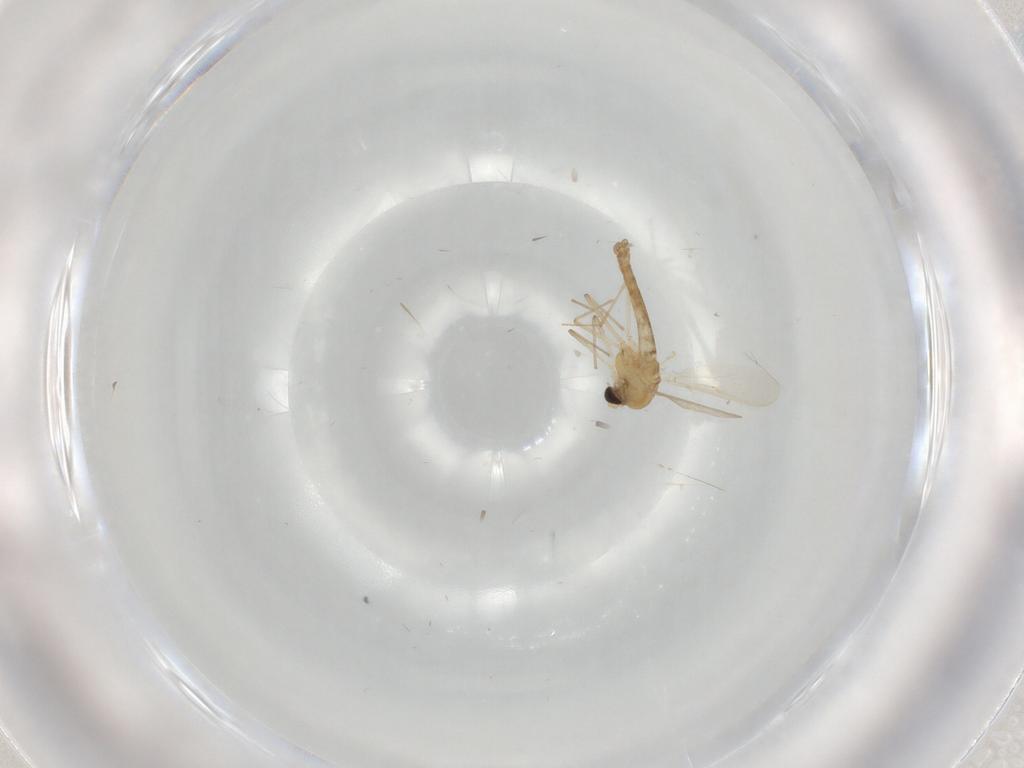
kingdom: Animalia
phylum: Arthropoda
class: Insecta
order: Diptera
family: Chironomidae
